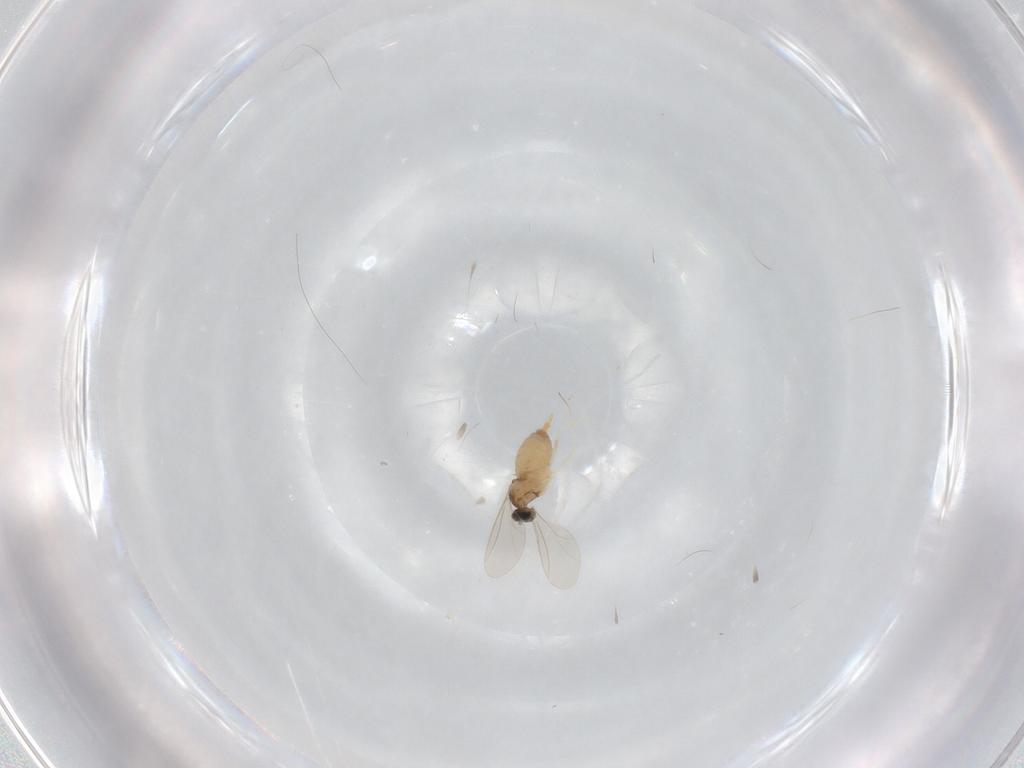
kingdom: Animalia
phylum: Arthropoda
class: Insecta
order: Diptera
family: Cecidomyiidae
